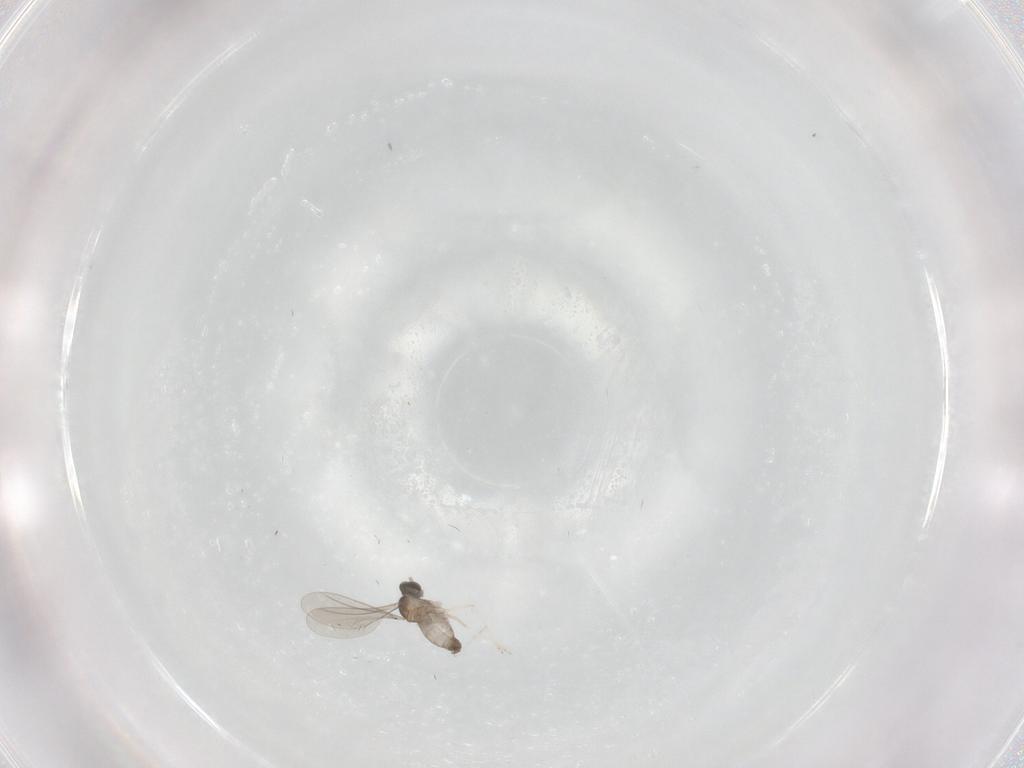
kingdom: Animalia
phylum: Arthropoda
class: Insecta
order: Diptera
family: Cecidomyiidae
